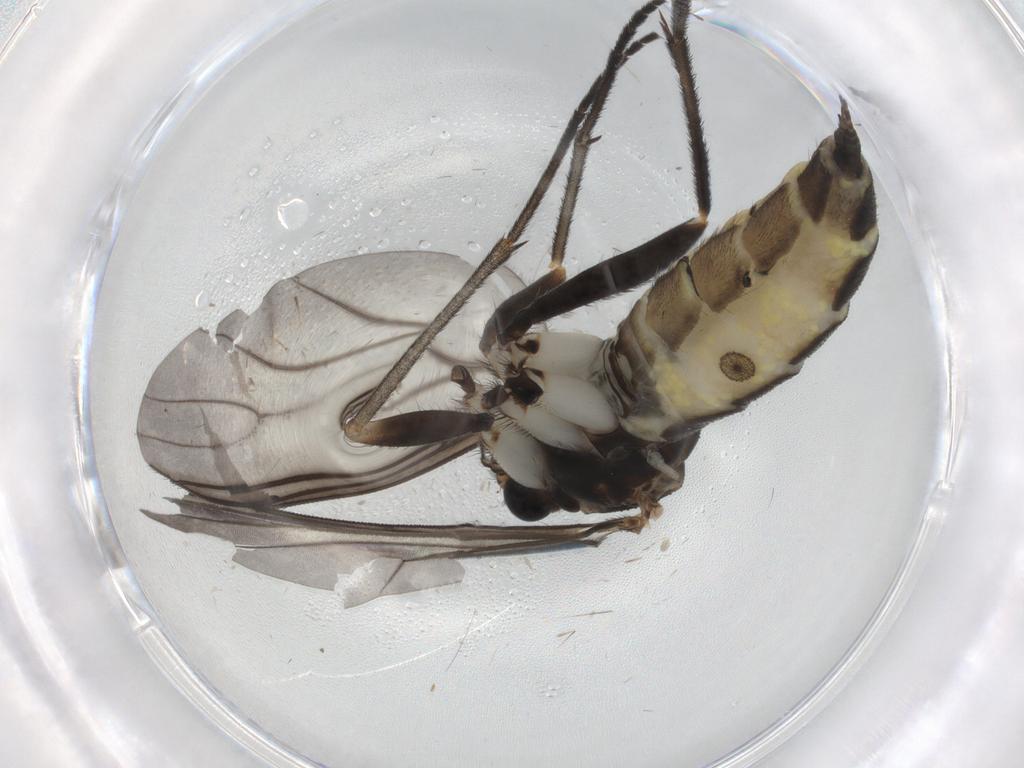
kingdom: Animalia
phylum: Arthropoda
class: Insecta
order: Diptera
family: Sciaridae
